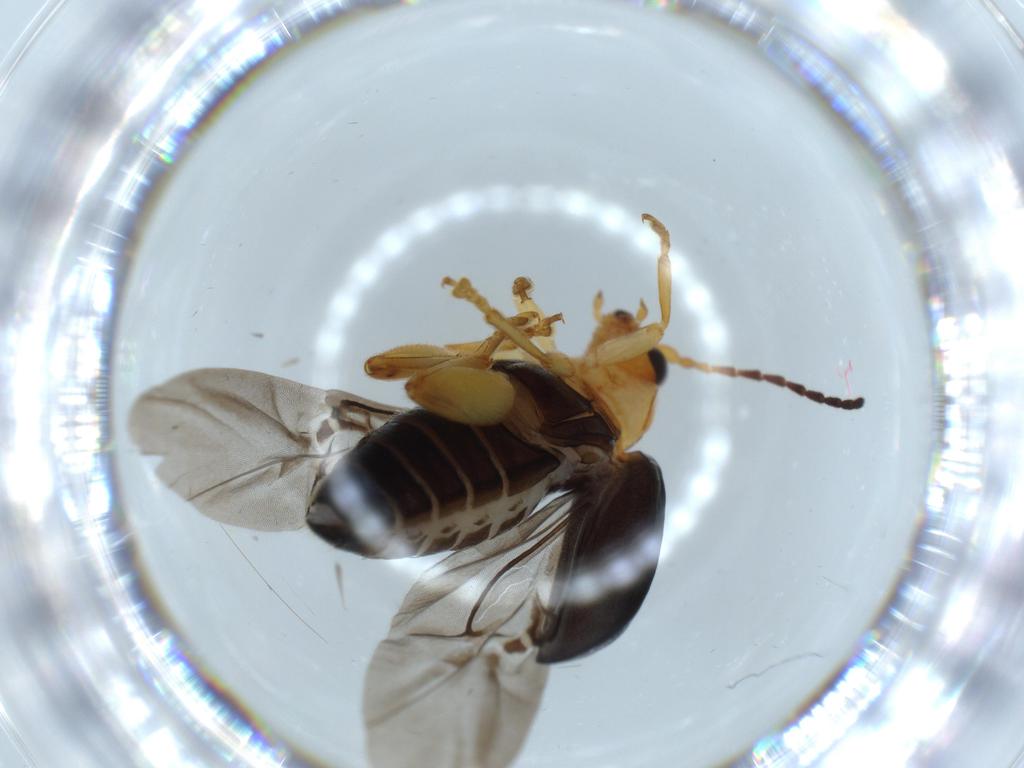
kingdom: Animalia
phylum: Arthropoda
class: Insecta
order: Coleoptera
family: Chrysomelidae
